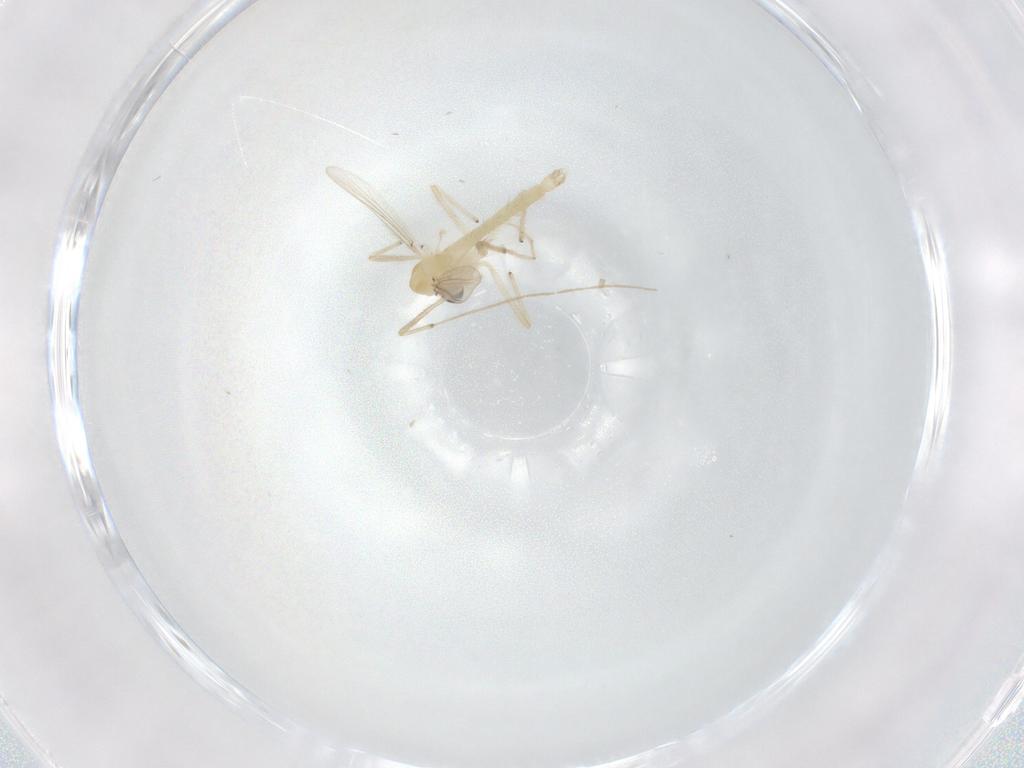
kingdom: Animalia
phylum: Arthropoda
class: Insecta
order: Diptera
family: Chironomidae
